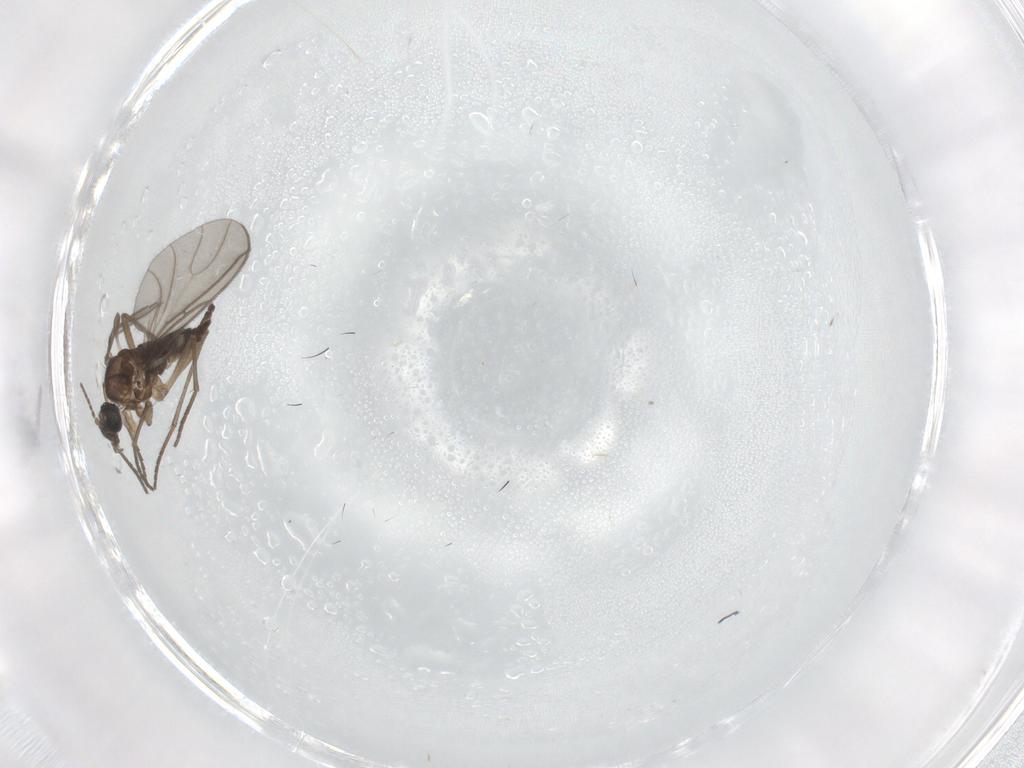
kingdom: Animalia
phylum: Arthropoda
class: Insecta
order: Diptera
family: Sciaridae
